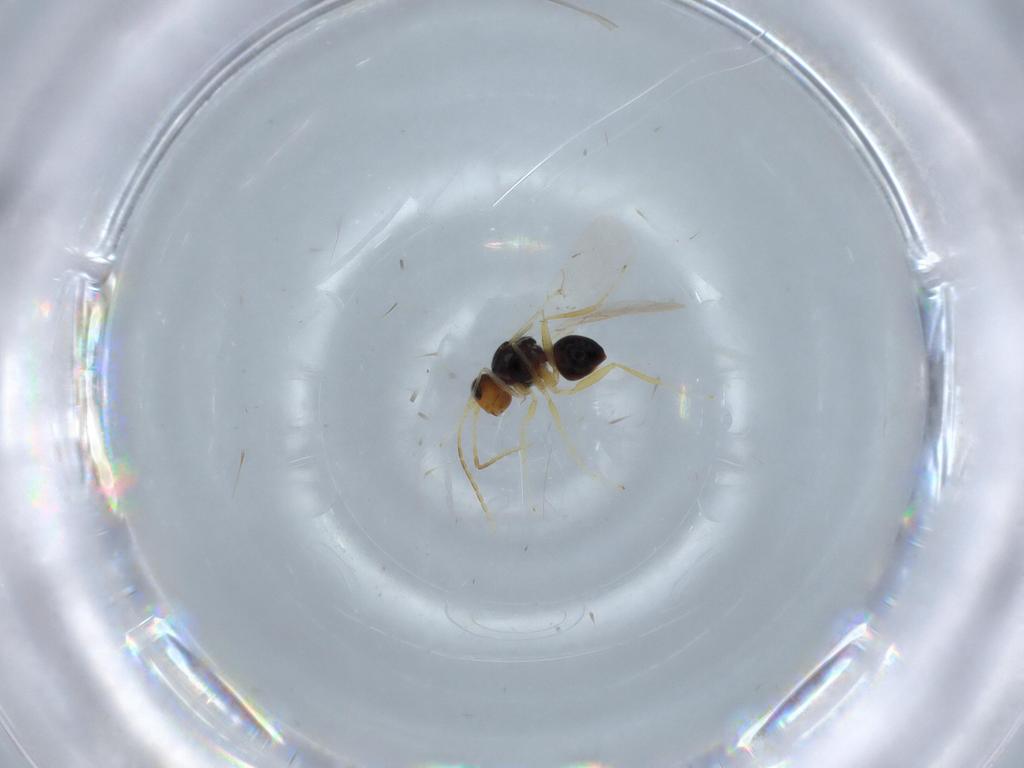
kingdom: Animalia
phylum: Arthropoda
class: Insecta
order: Hymenoptera
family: Figitidae
